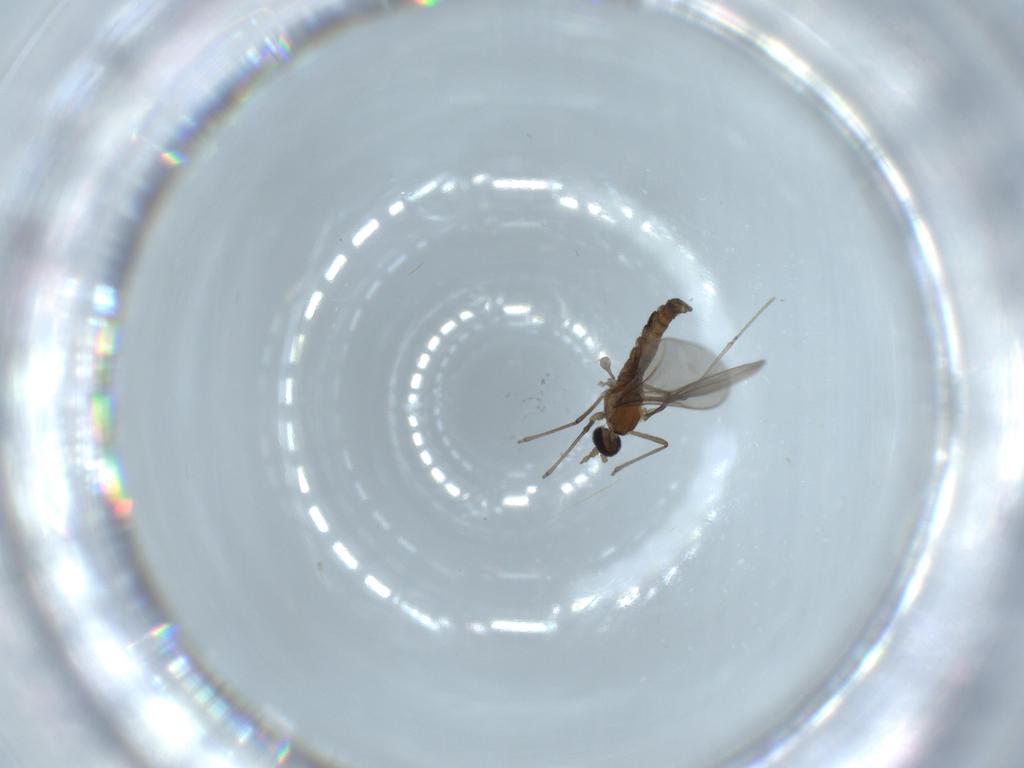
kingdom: Animalia
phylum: Arthropoda
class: Insecta
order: Diptera
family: Cecidomyiidae
